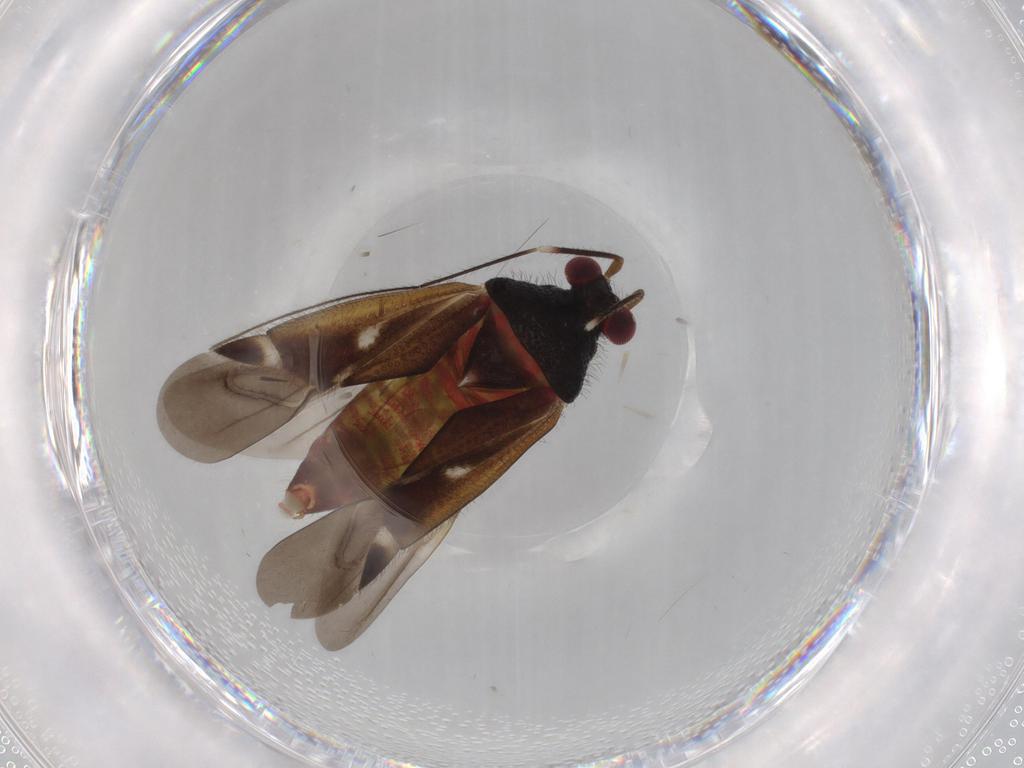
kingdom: Animalia
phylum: Arthropoda
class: Insecta
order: Hemiptera
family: Miridae
